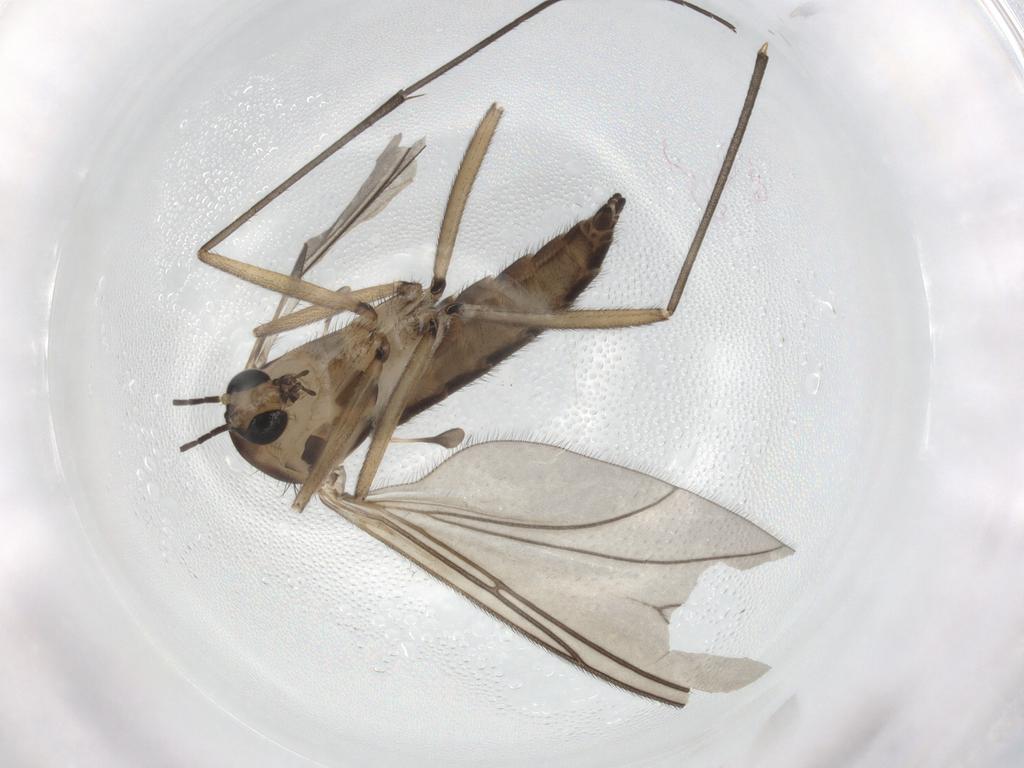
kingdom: Animalia
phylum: Arthropoda
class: Insecta
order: Diptera
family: Sciaridae
